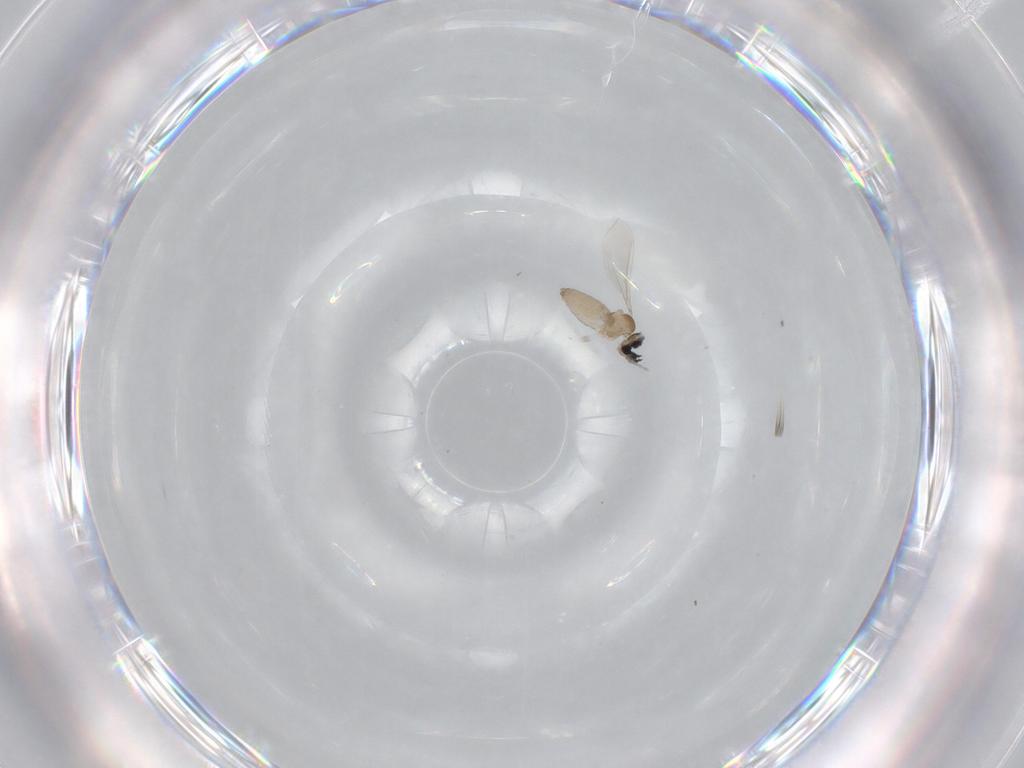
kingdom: Animalia
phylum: Arthropoda
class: Insecta
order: Diptera
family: Cecidomyiidae
